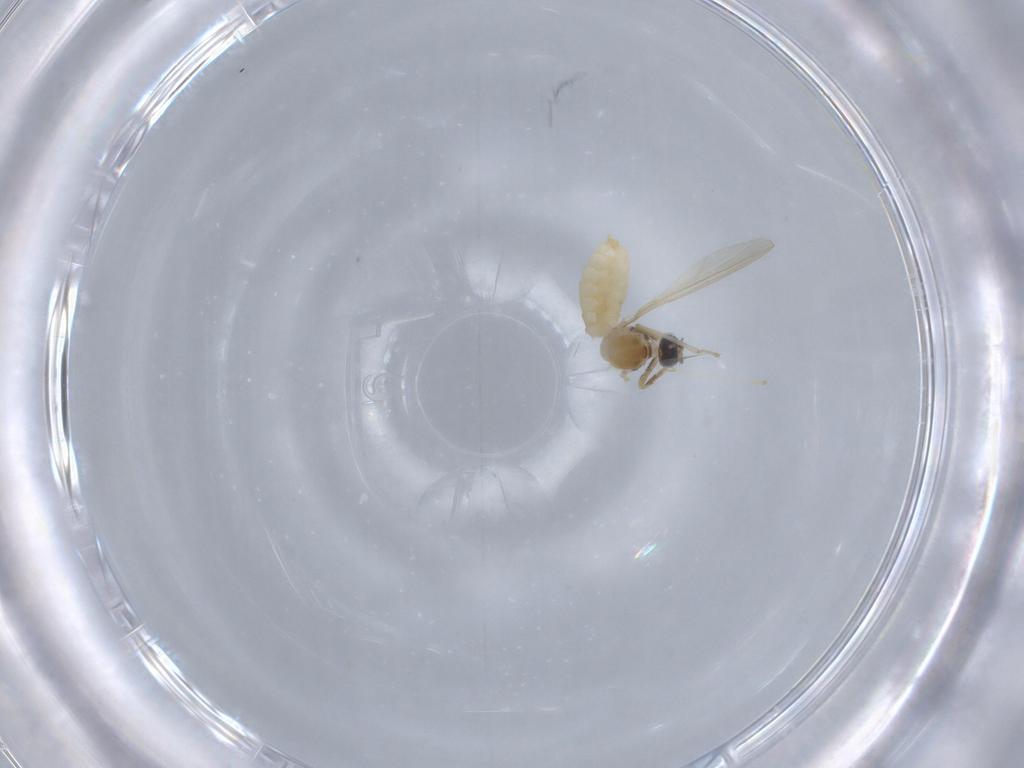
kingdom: Animalia
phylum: Arthropoda
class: Insecta
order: Diptera
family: Cecidomyiidae
